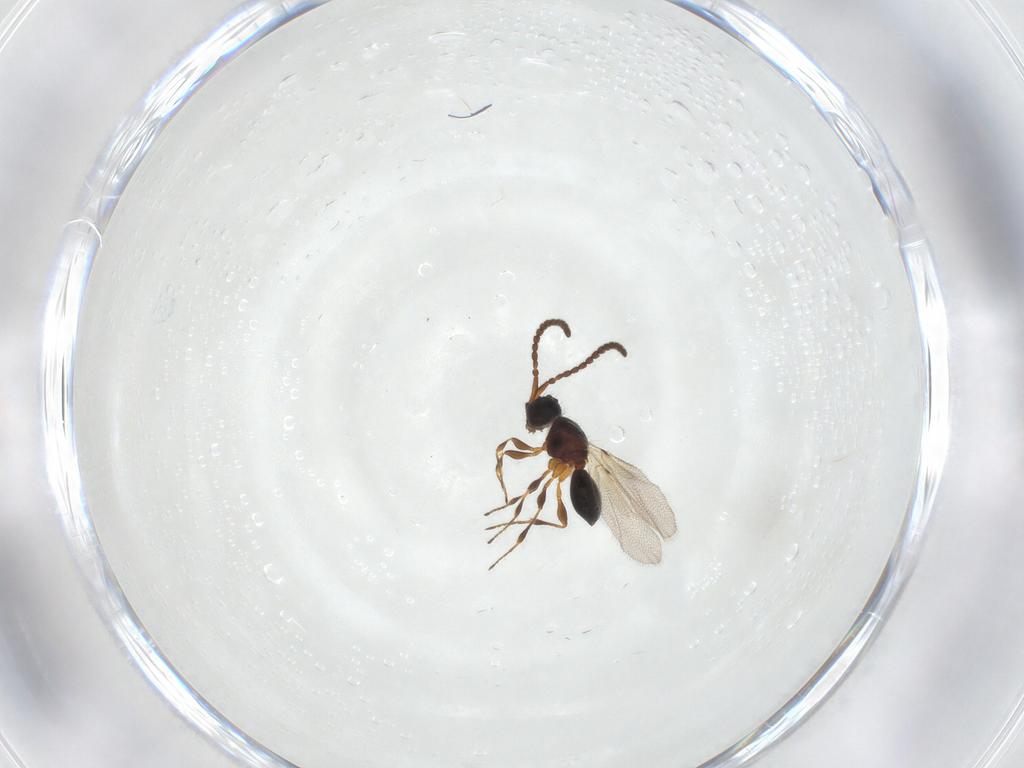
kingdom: Animalia
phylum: Arthropoda
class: Insecta
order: Hymenoptera
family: Diapriidae
